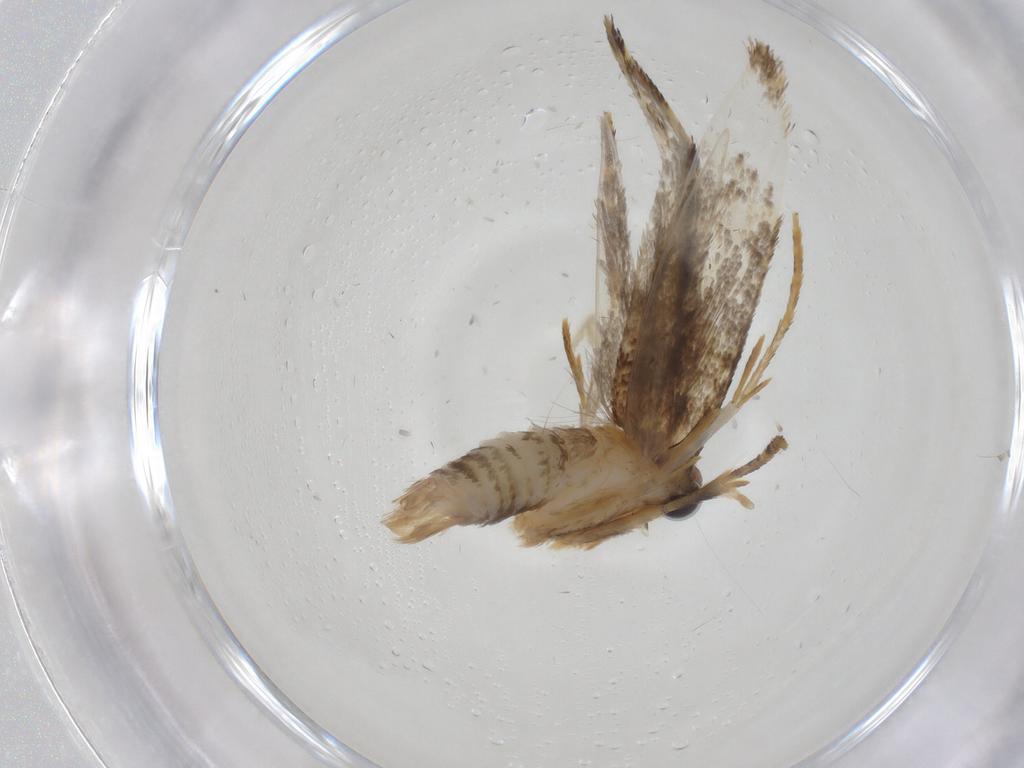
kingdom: Animalia
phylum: Arthropoda
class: Insecta
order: Lepidoptera
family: Tineidae
